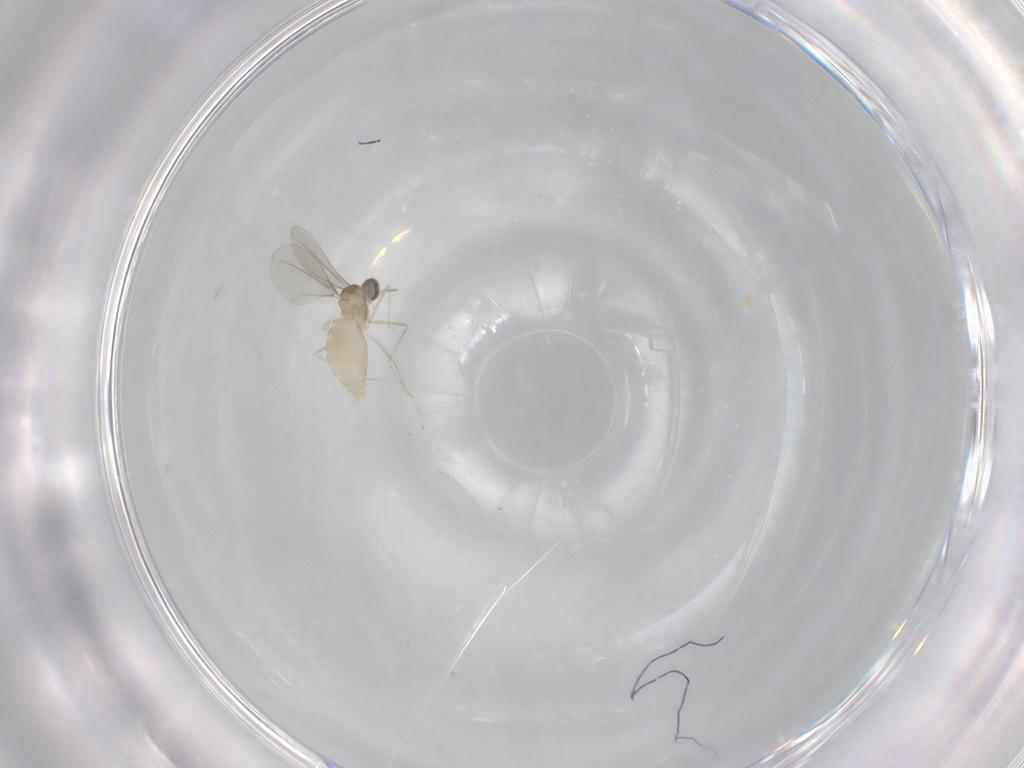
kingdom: Animalia
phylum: Arthropoda
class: Insecta
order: Diptera
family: Cecidomyiidae
